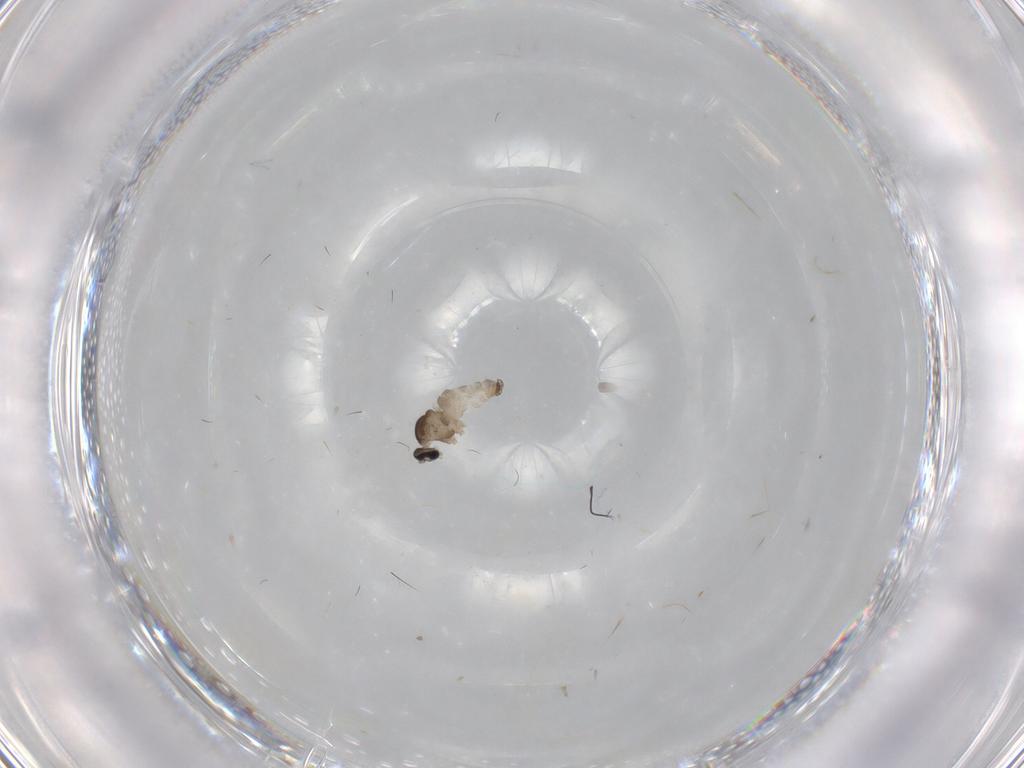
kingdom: Animalia
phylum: Arthropoda
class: Insecta
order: Diptera
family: Cecidomyiidae
